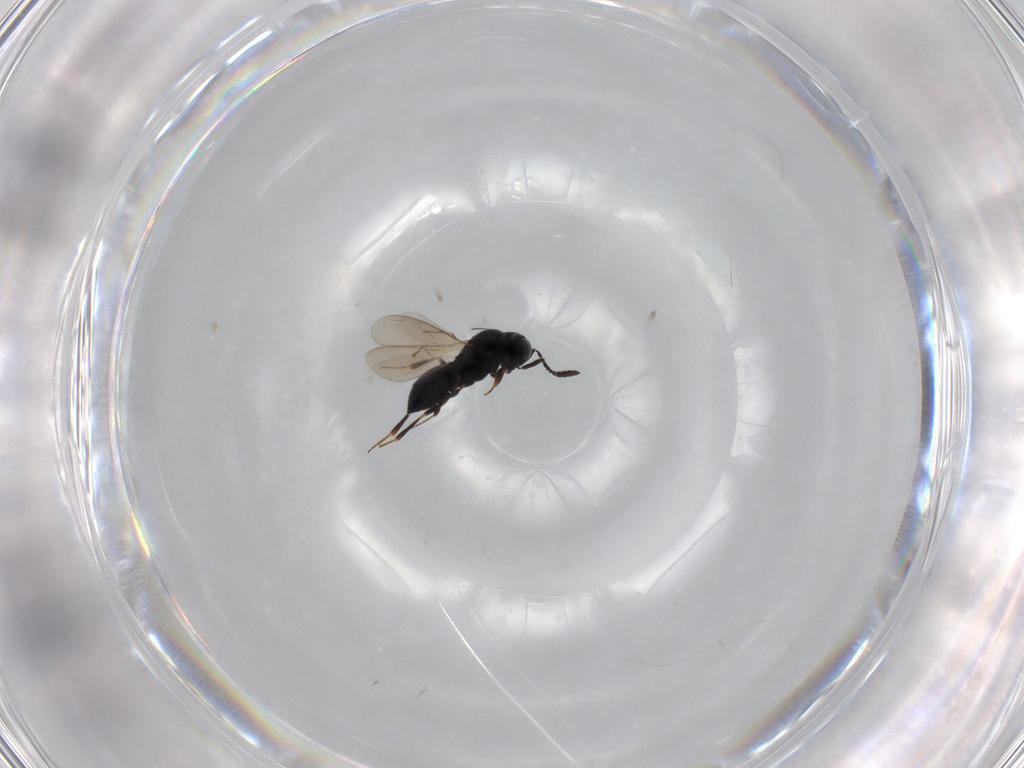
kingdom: Animalia
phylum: Arthropoda
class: Insecta
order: Hymenoptera
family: Scelionidae
